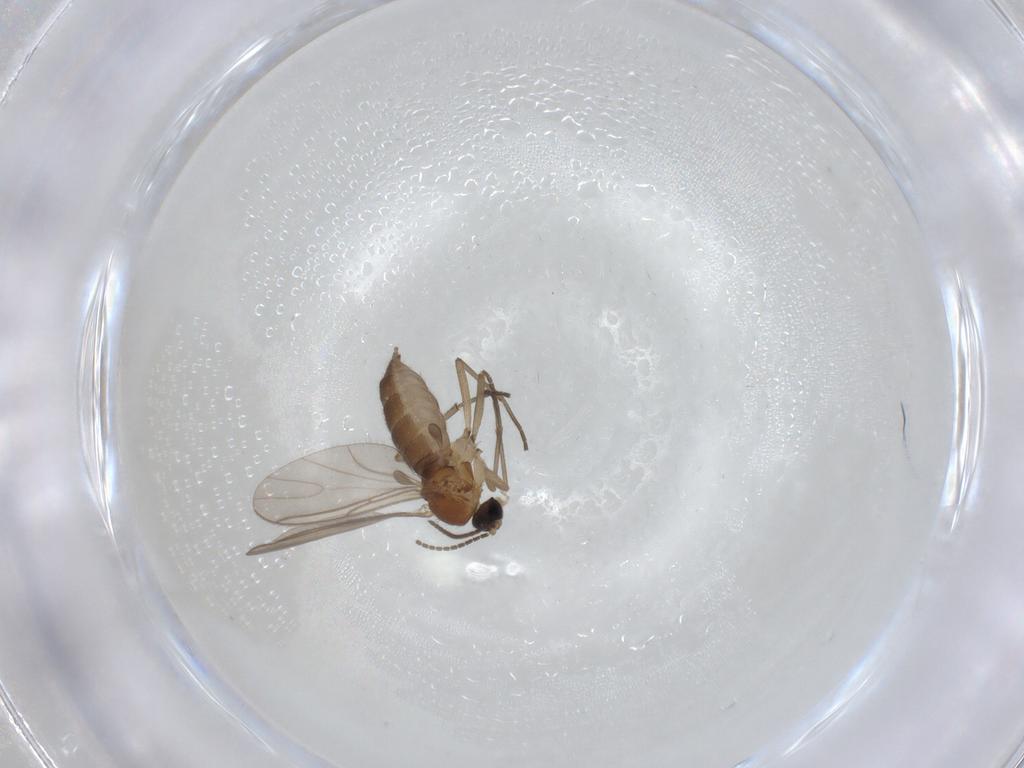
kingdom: Animalia
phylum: Arthropoda
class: Insecta
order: Diptera
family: Sciaridae
